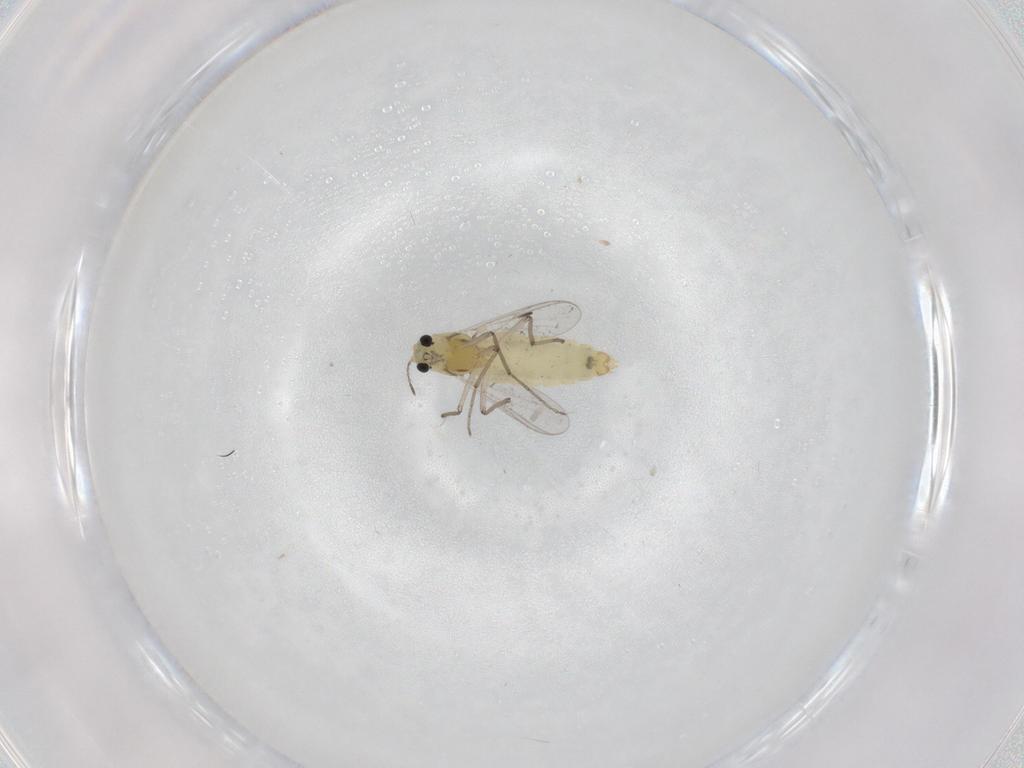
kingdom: Animalia
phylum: Arthropoda
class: Insecta
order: Diptera
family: Chironomidae
